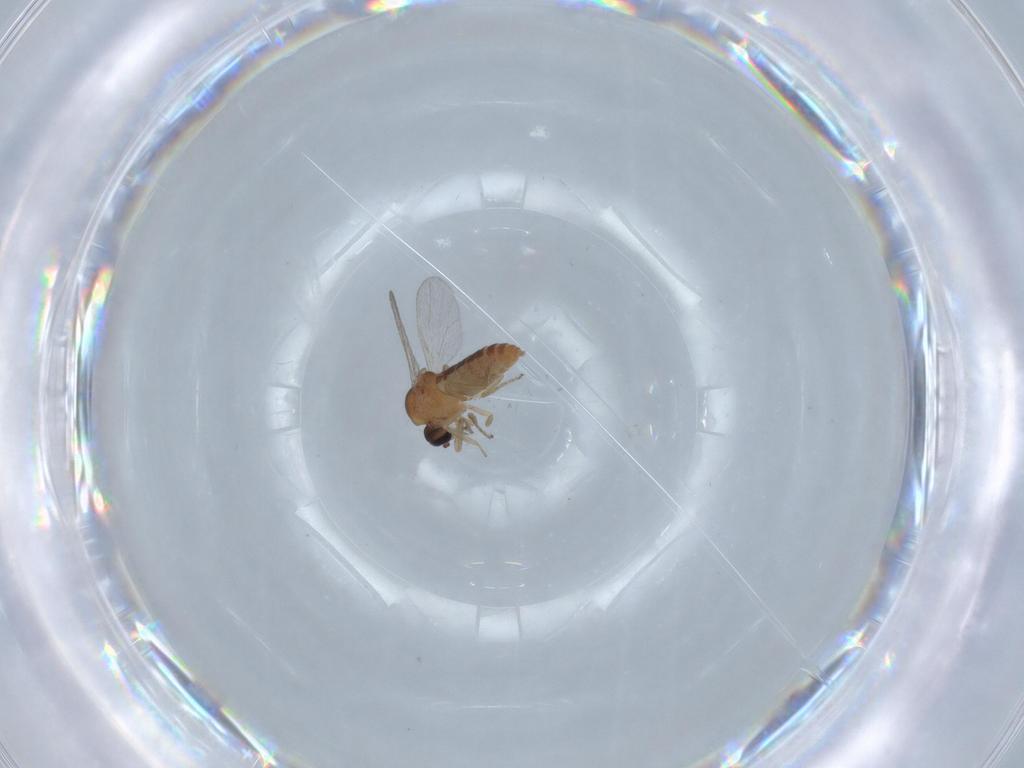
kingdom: Animalia
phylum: Arthropoda
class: Insecta
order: Diptera
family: Ceratopogonidae
